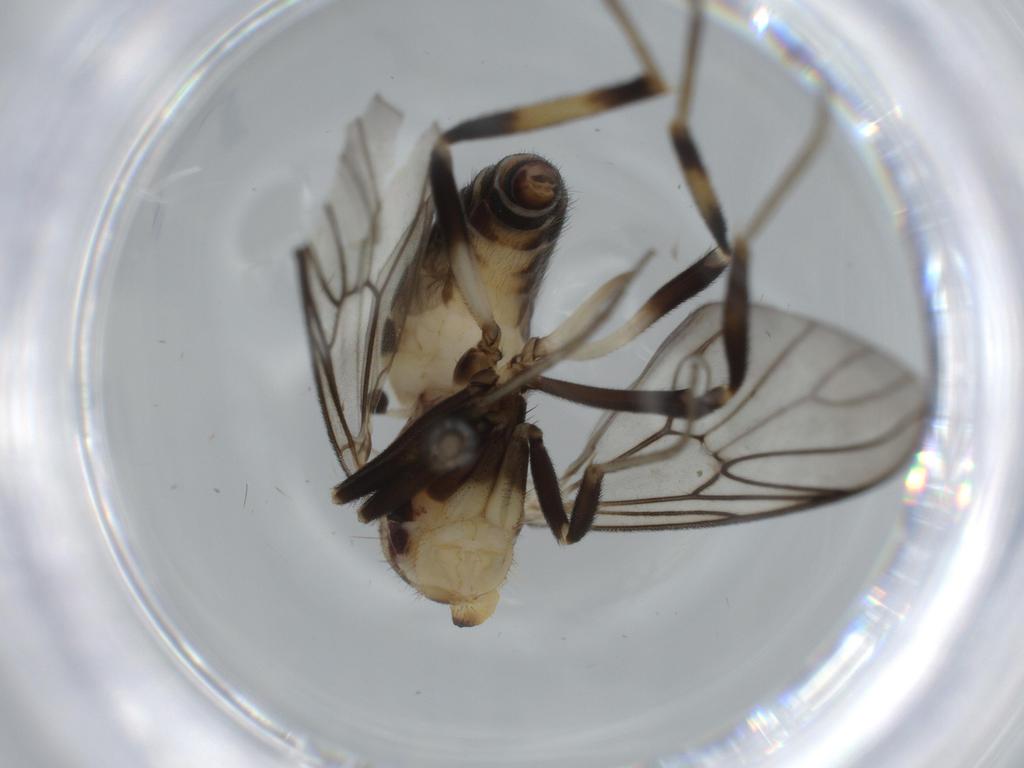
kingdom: Animalia
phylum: Arthropoda
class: Insecta
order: Diptera
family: Anisopodidae
